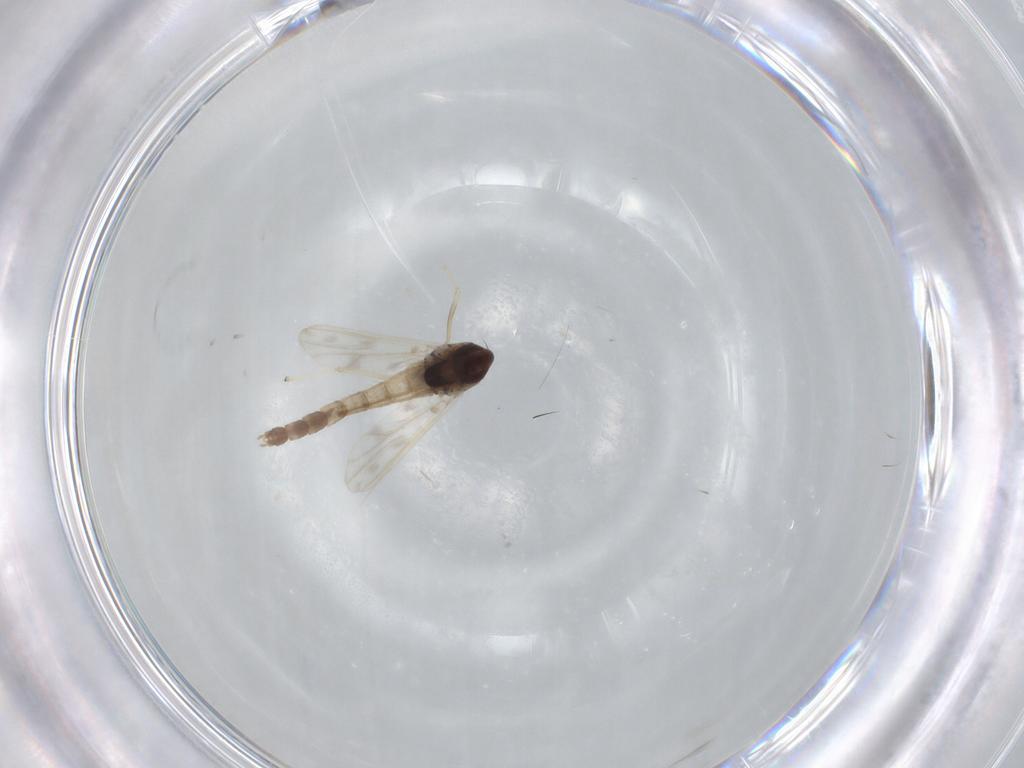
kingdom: Animalia
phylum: Arthropoda
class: Insecta
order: Diptera
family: Chironomidae
